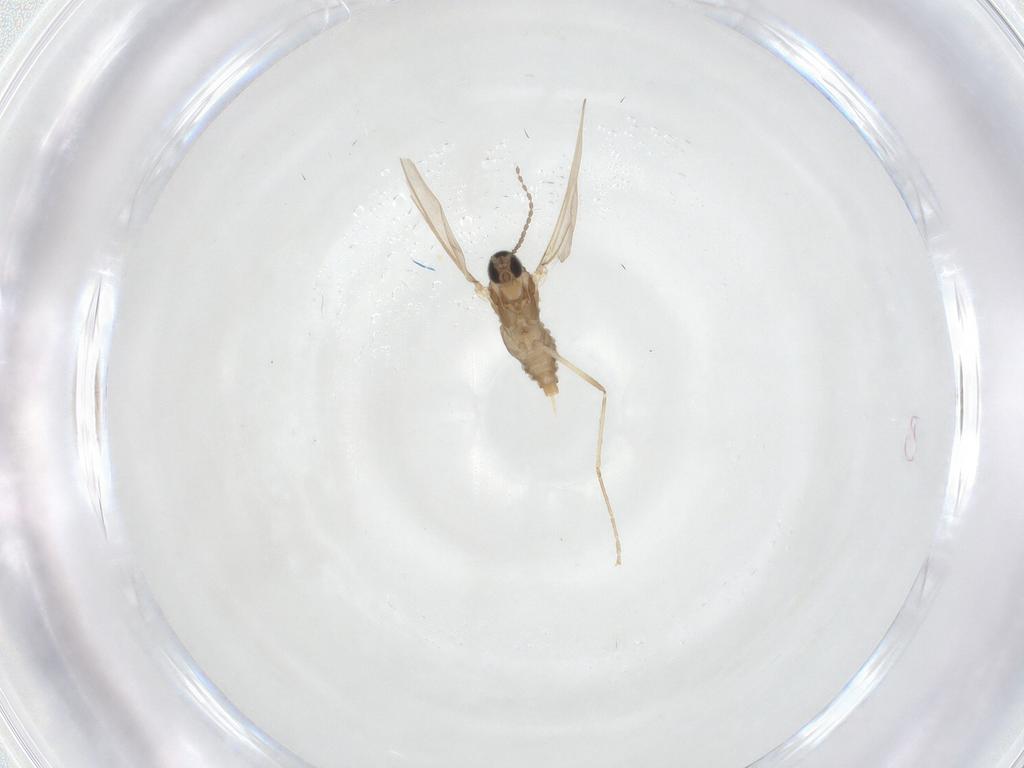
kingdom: Animalia
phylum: Arthropoda
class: Insecta
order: Diptera
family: Cecidomyiidae
